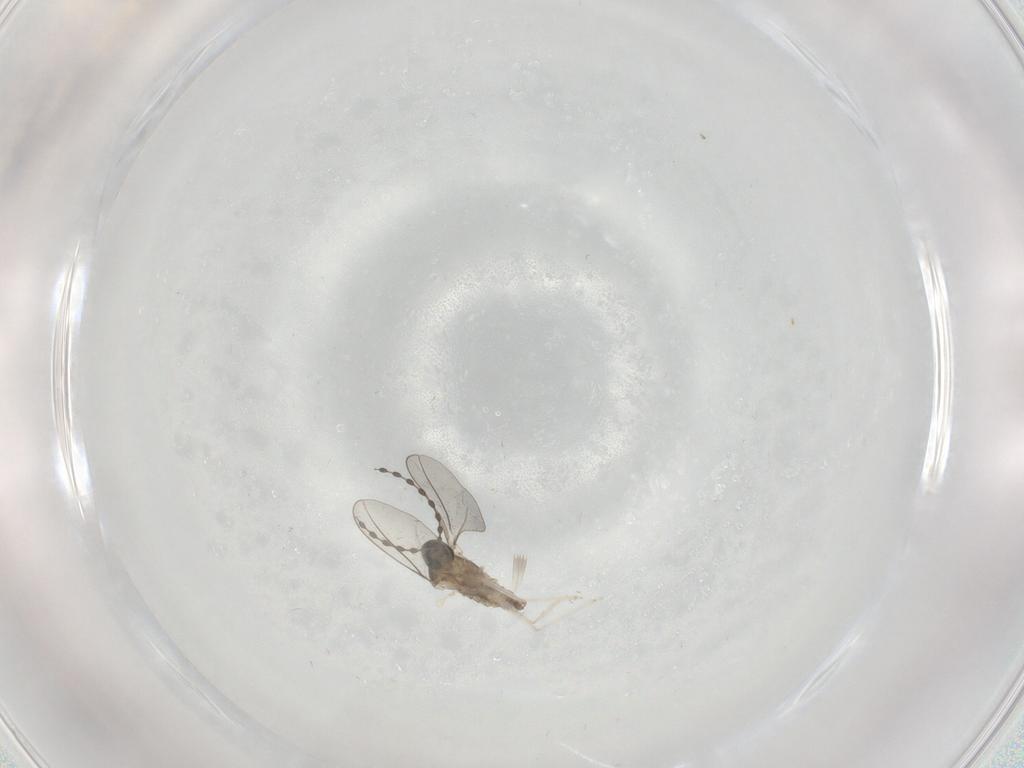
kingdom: Animalia
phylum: Arthropoda
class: Insecta
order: Diptera
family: Cecidomyiidae
